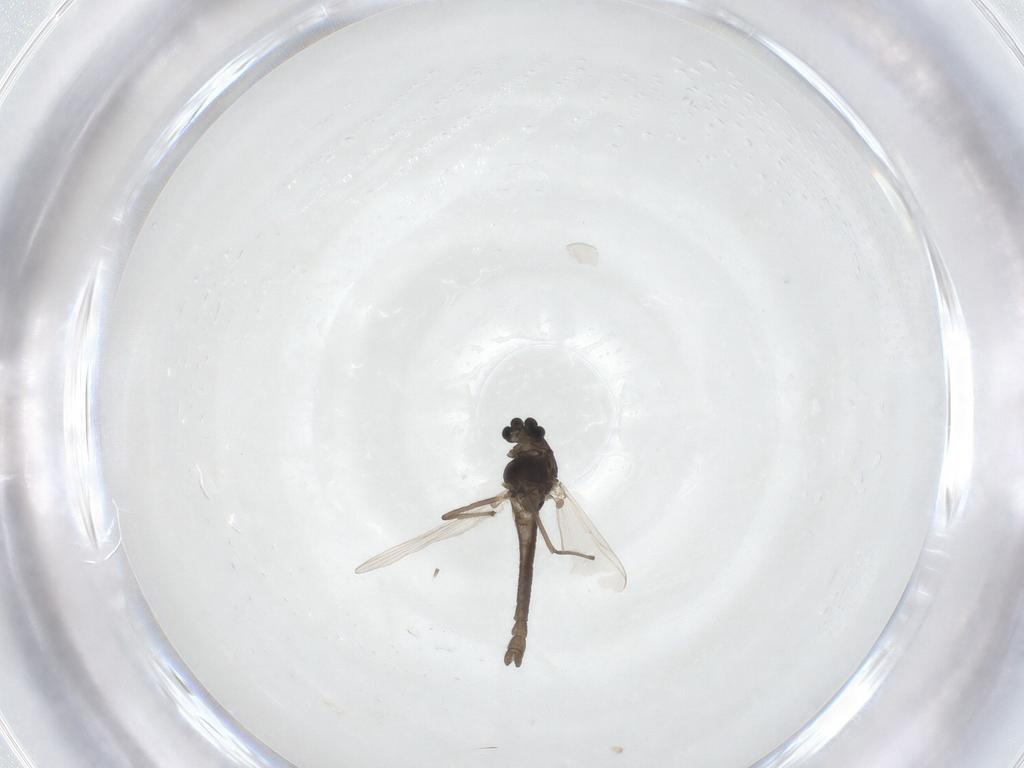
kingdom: Animalia
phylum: Arthropoda
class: Insecta
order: Diptera
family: Chironomidae
